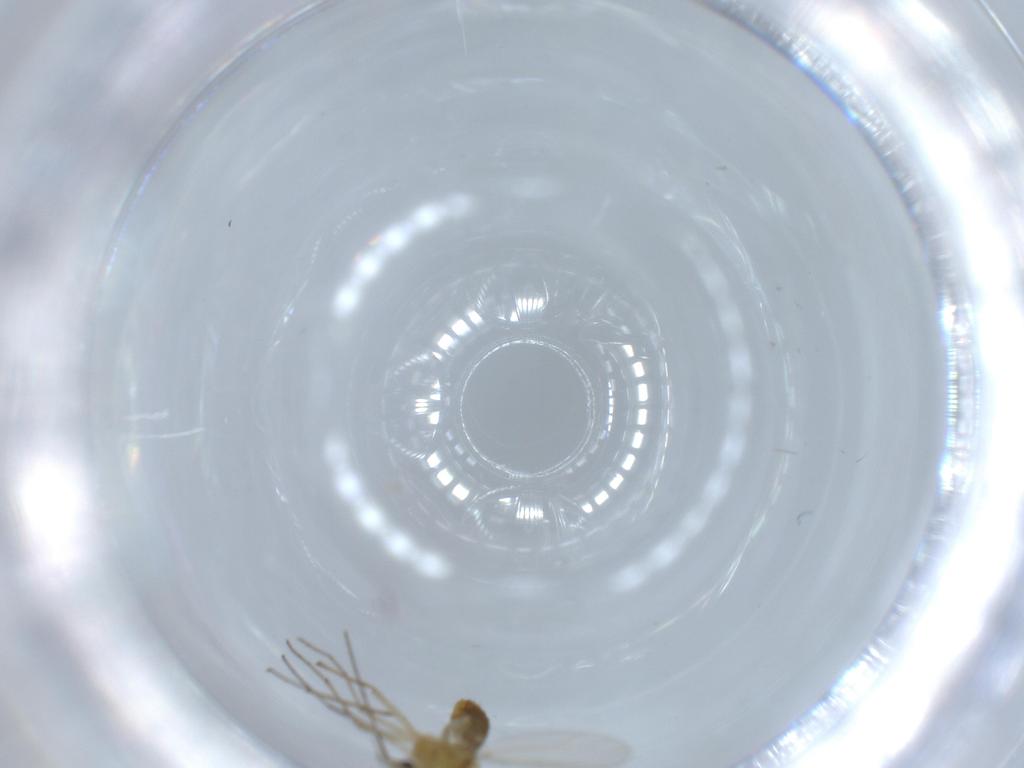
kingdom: Animalia
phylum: Arthropoda
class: Insecta
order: Diptera
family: Chironomidae
